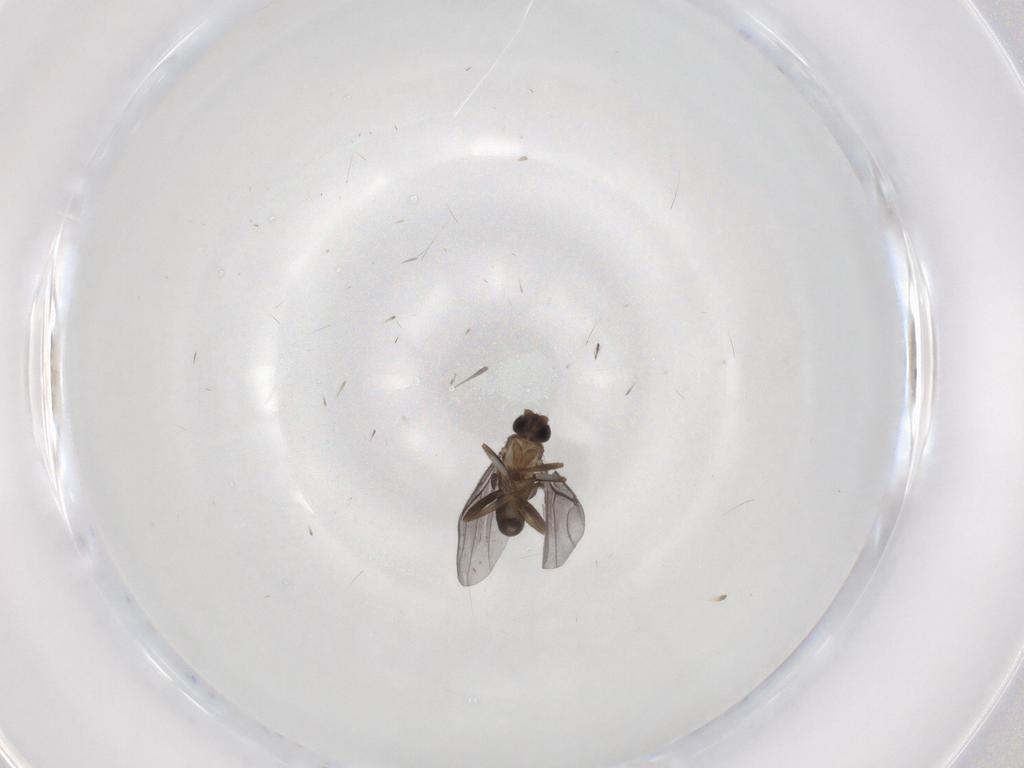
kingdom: Animalia
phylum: Arthropoda
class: Insecta
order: Diptera
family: Phoridae
